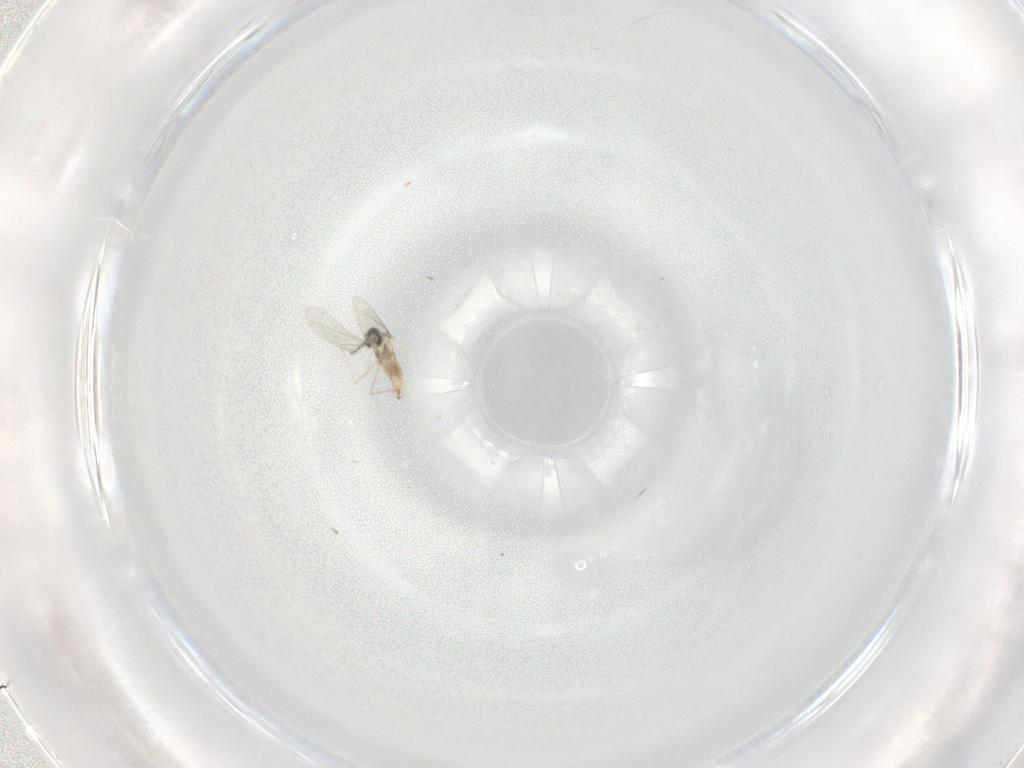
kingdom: Animalia
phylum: Arthropoda
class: Insecta
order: Diptera
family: Cecidomyiidae
